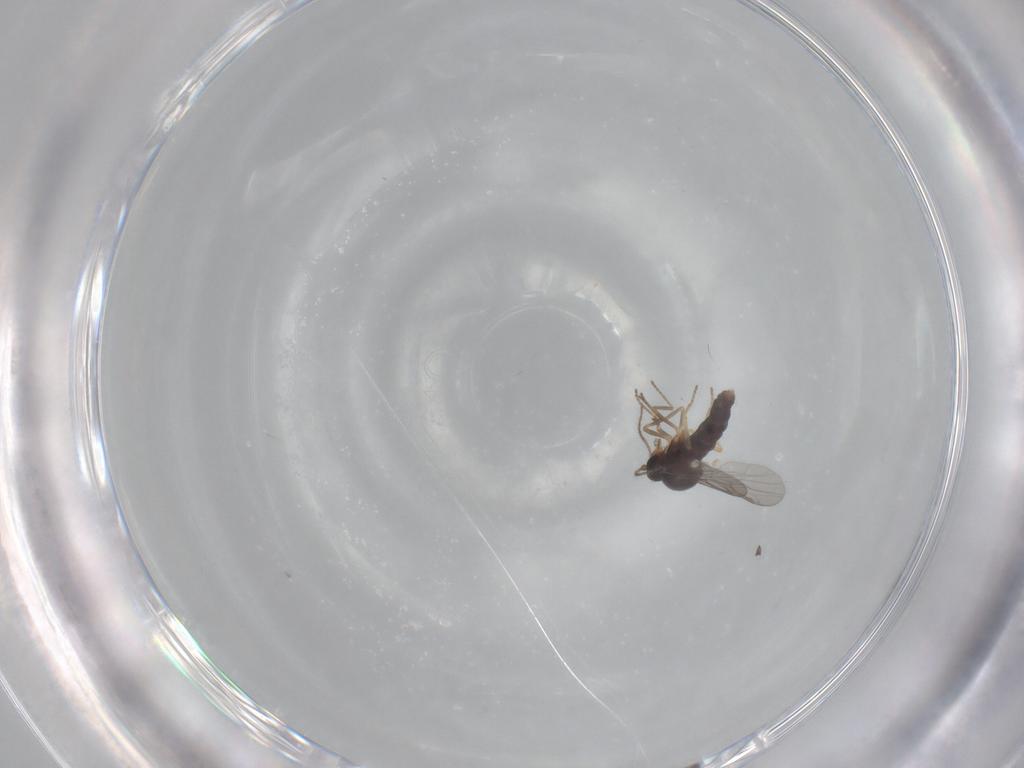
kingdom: Animalia
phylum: Arthropoda
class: Insecta
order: Diptera
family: Ceratopogonidae
